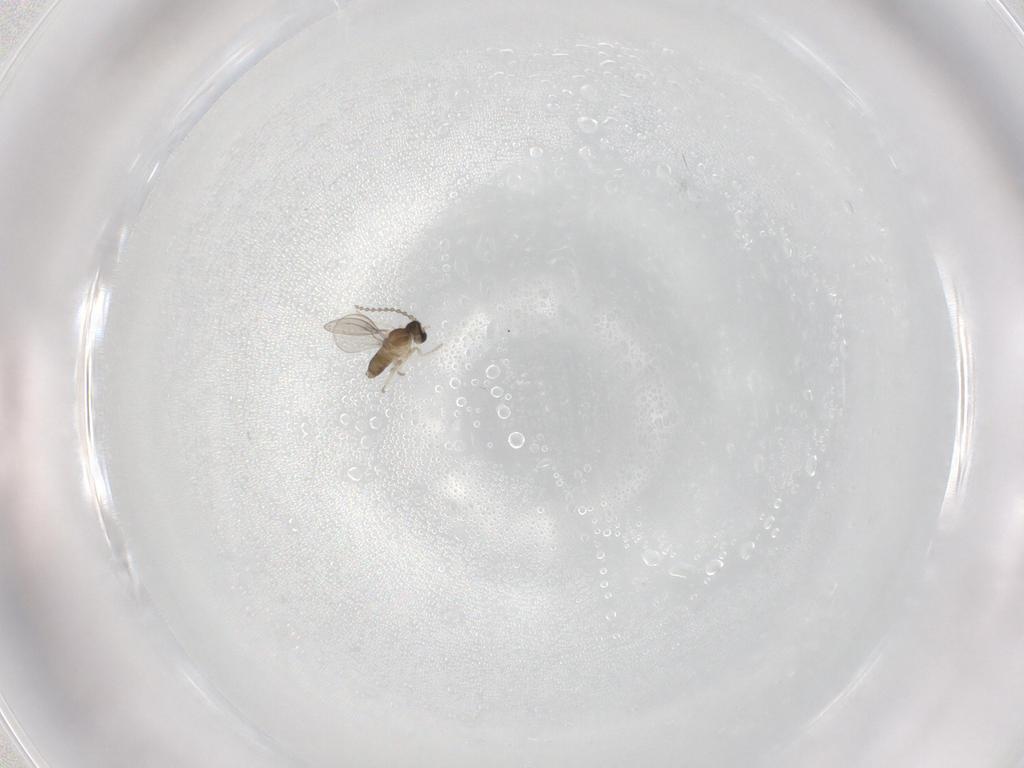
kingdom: Animalia
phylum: Arthropoda
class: Insecta
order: Diptera
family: Cecidomyiidae
